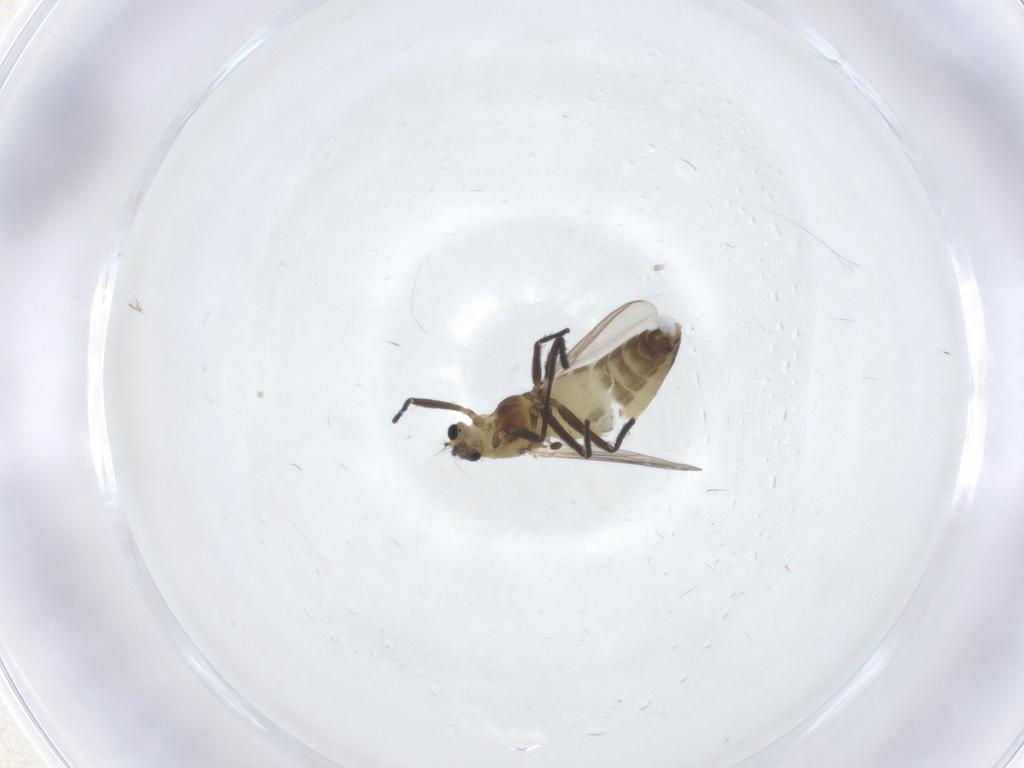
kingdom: Animalia
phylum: Arthropoda
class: Insecta
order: Diptera
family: Chironomidae
